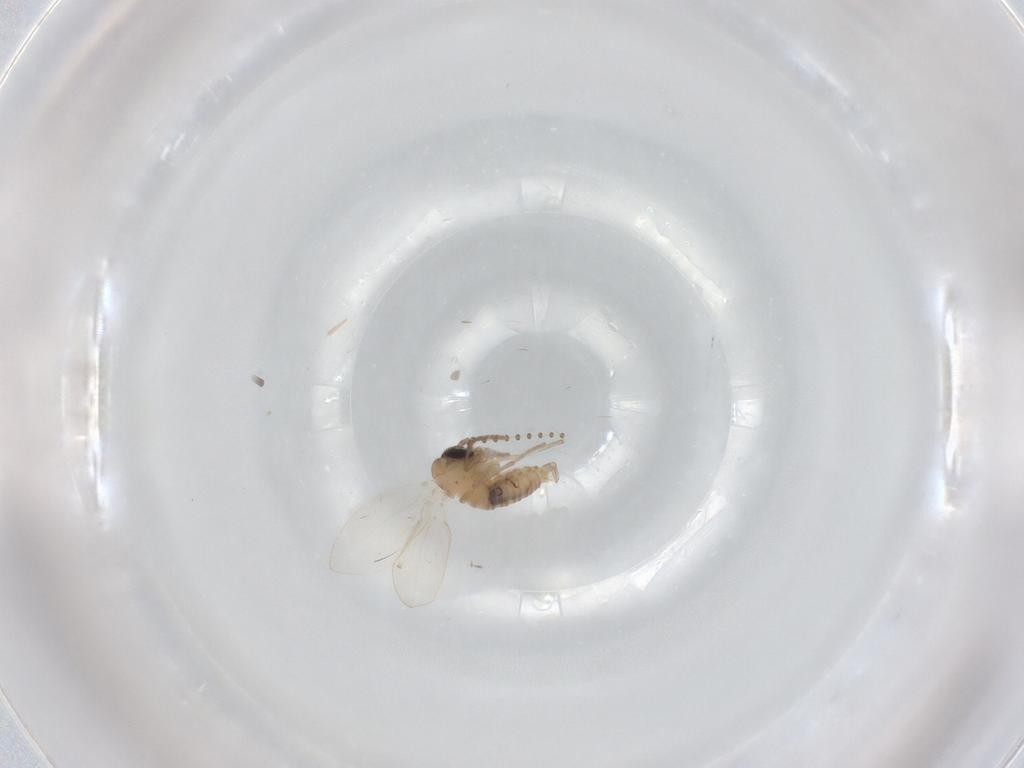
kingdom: Animalia
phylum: Arthropoda
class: Insecta
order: Diptera
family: Psychodidae
